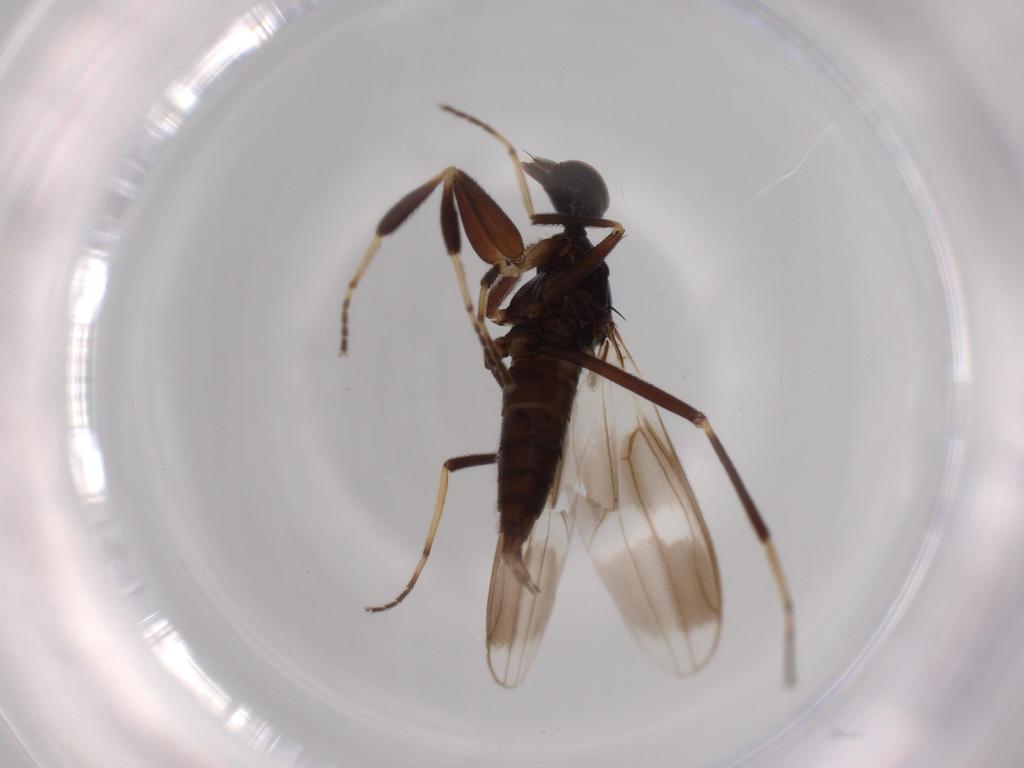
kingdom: Animalia
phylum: Arthropoda
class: Insecta
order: Diptera
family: Hybotidae
